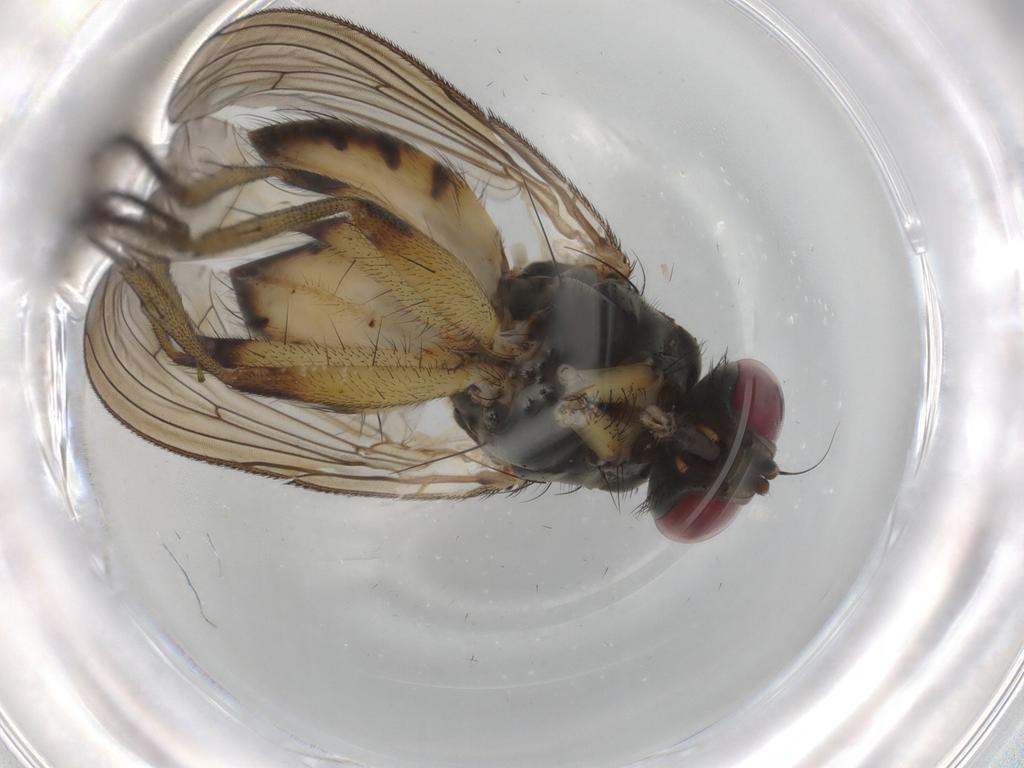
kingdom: Animalia
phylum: Arthropoda
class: Insecta
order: Diptera
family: Muscidae
